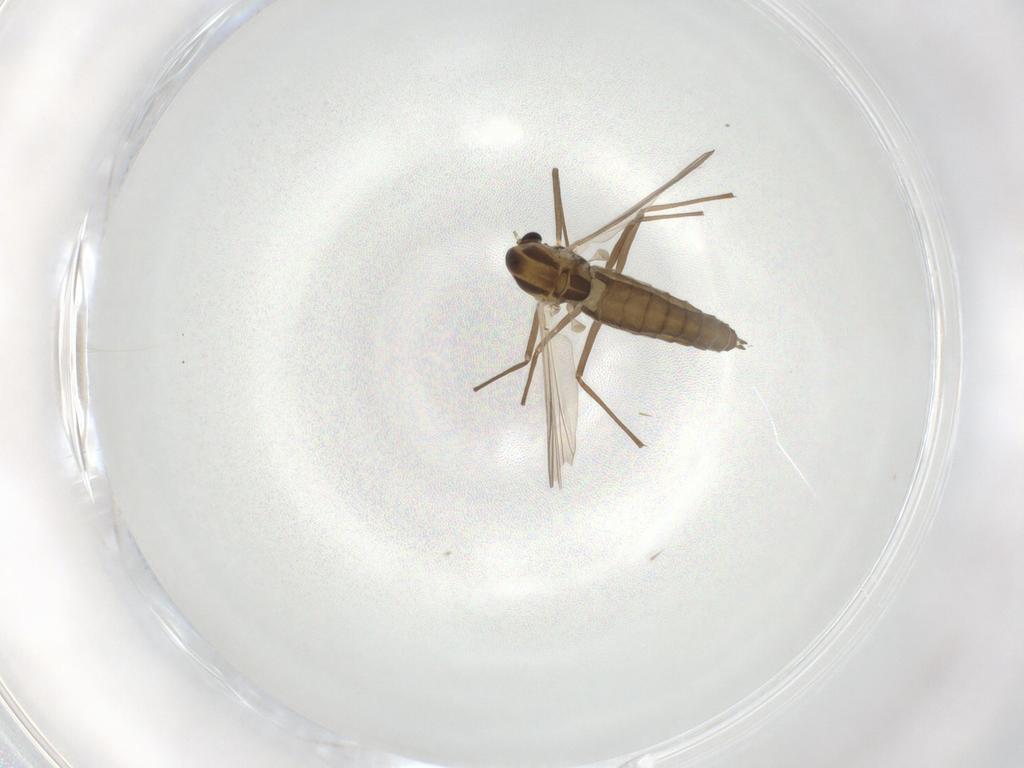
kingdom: Animalia
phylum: Arthropoda
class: Insecta
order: Diptera
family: Chironomidae
